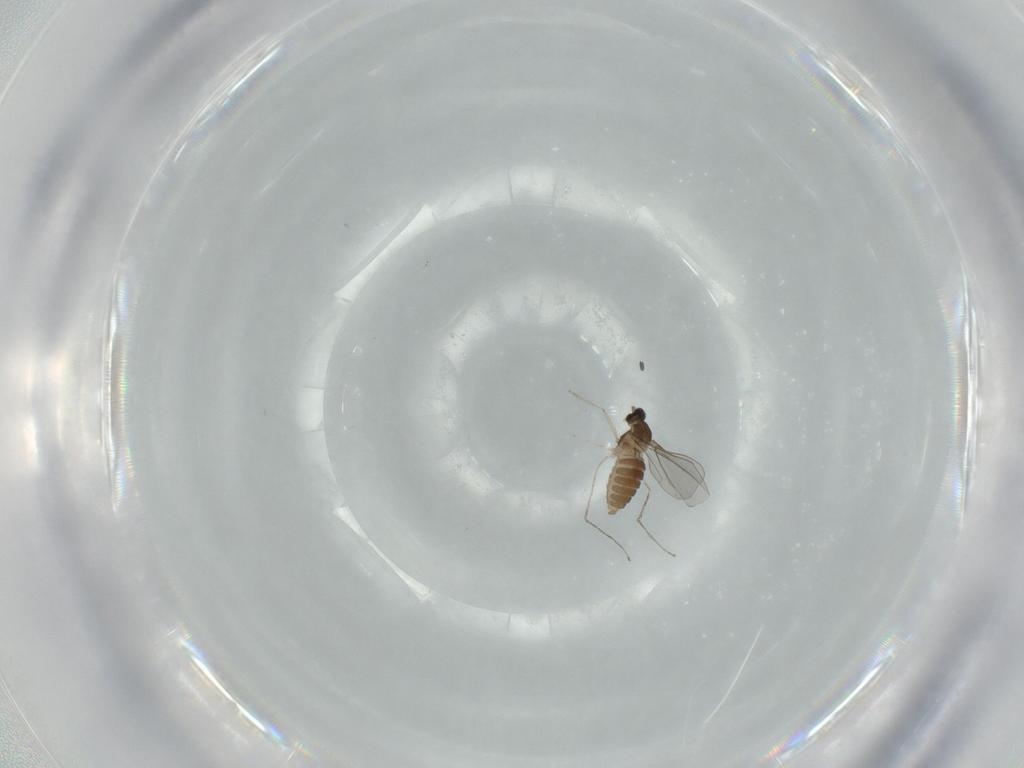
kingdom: Animalia
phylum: Arthropoda
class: Insecta
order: Diptera
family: Cecidomyiidae
